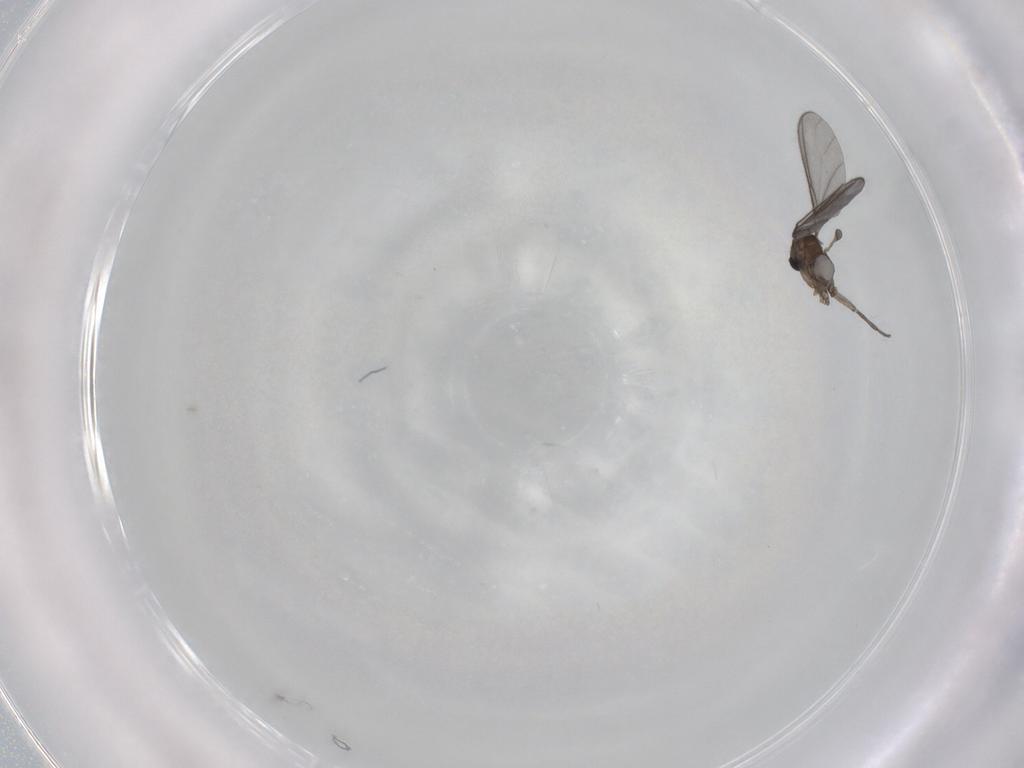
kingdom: Animalia
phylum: Arthropoda
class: Insecta
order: Diptera
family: Sciaridae
